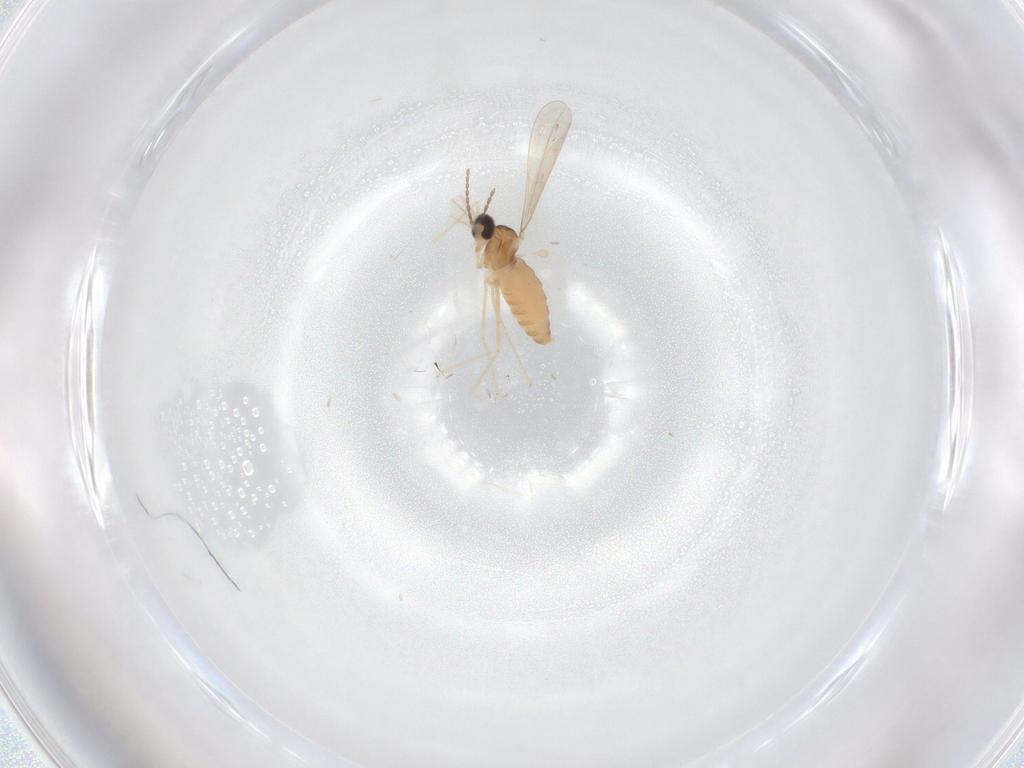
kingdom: Animalia
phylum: Arthropoda
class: Insecta
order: Diptera
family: Cecidomyiidae
